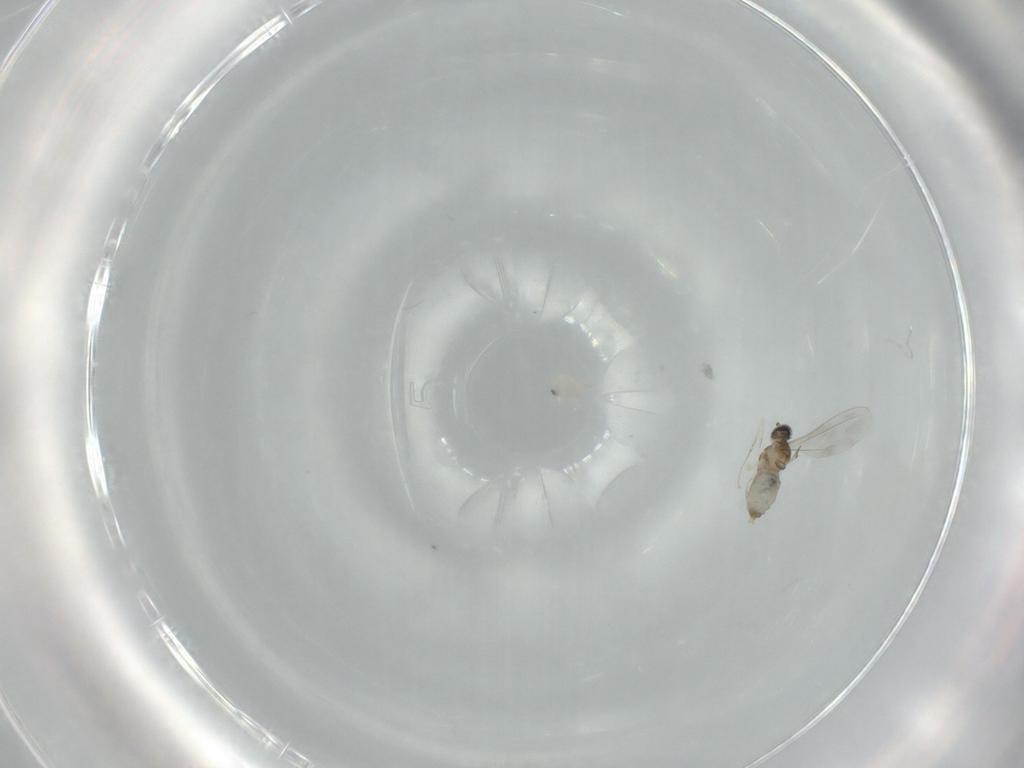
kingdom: Animalia
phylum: Arthropoda
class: Insecta
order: Diptera
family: Cecidomyiidae
